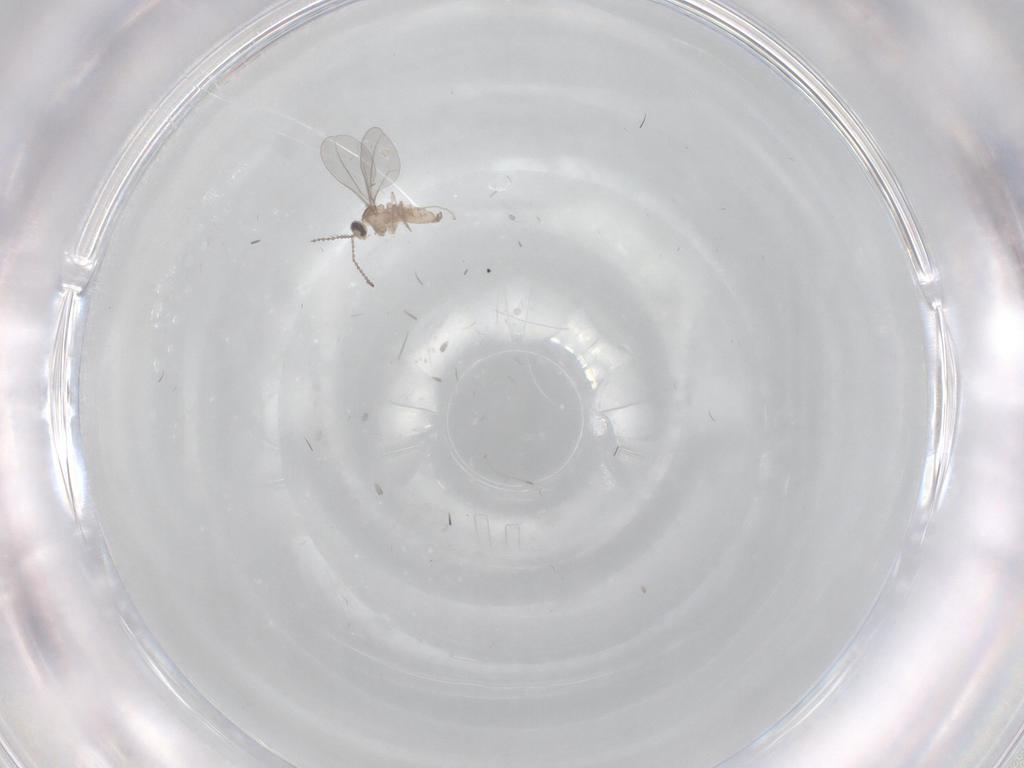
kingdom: Animalia
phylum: Arthropoda
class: Insecta
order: Diptera
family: Cecidomyiidae
